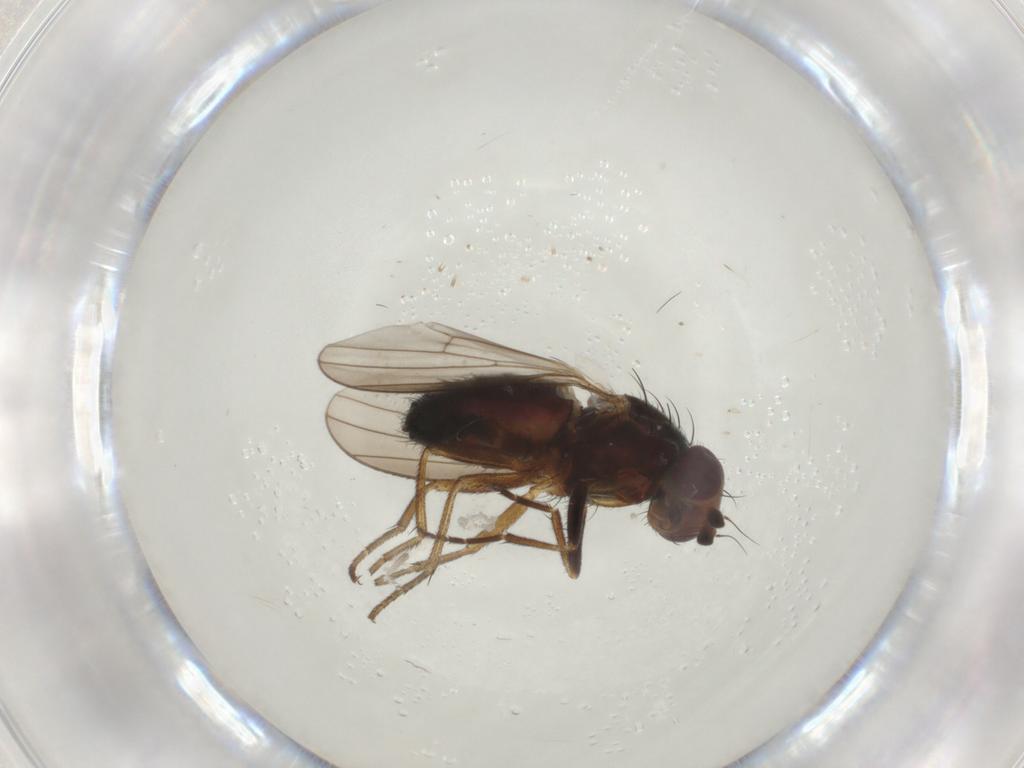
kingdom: Animalia
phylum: Arthropoda
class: Insecta
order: Diptera
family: Heleomyzidae
